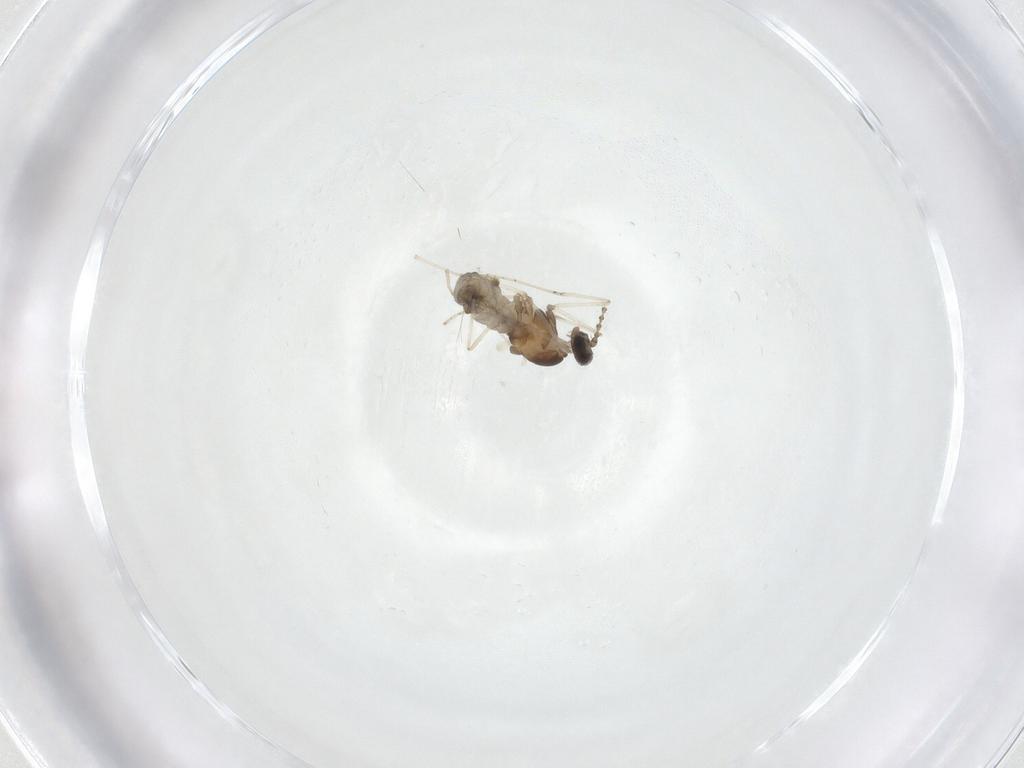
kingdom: Animalia
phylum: Arthropoda
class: Insecta
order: Diptera
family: Cecidomyiidae
